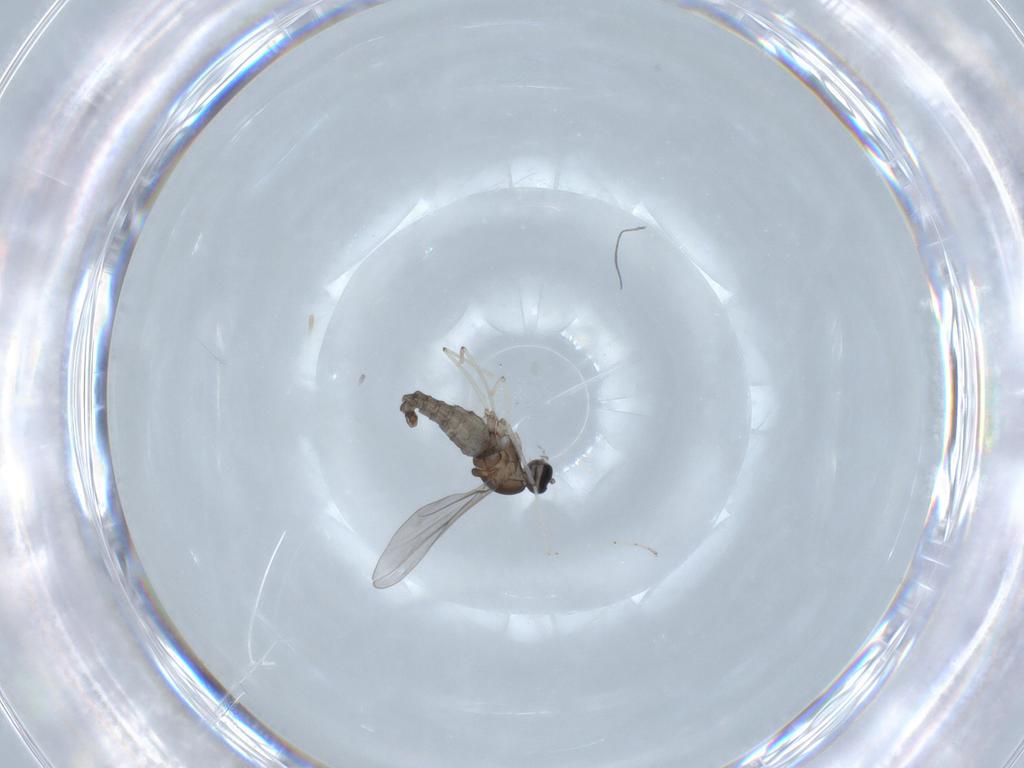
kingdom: Animalia
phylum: Arthropoda
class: Insecta
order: Diptera
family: Cecidomyiidae
